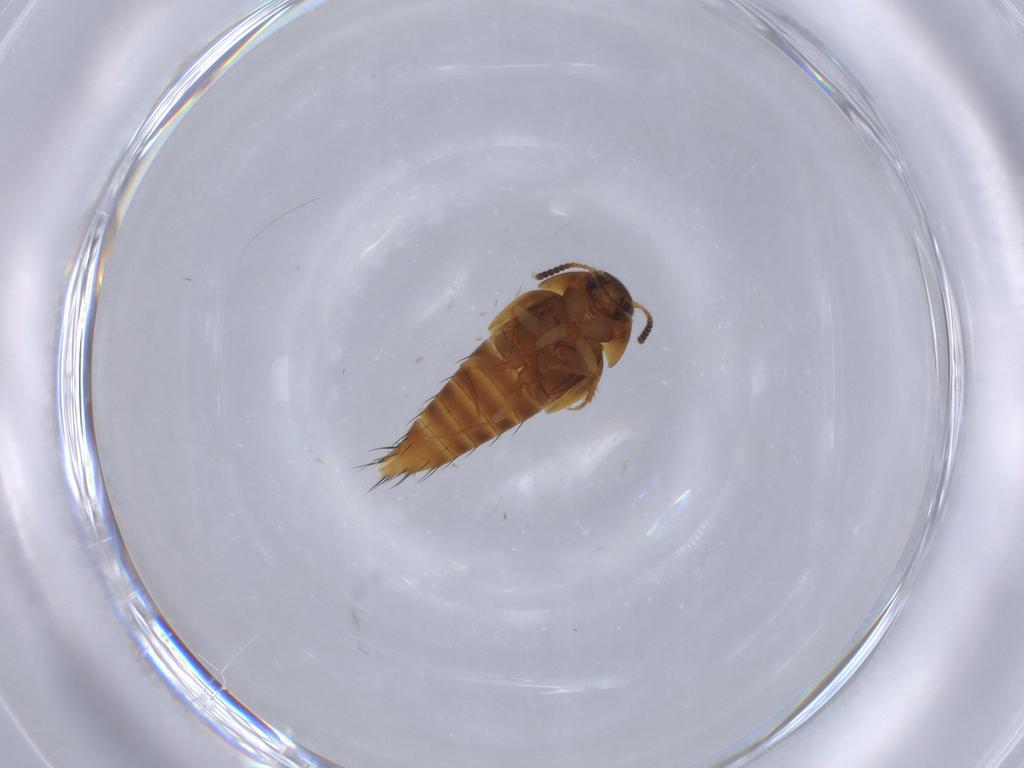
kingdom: Animalia
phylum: Arthropoda
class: Insecta
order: Coleoptera
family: Staphylinidae
